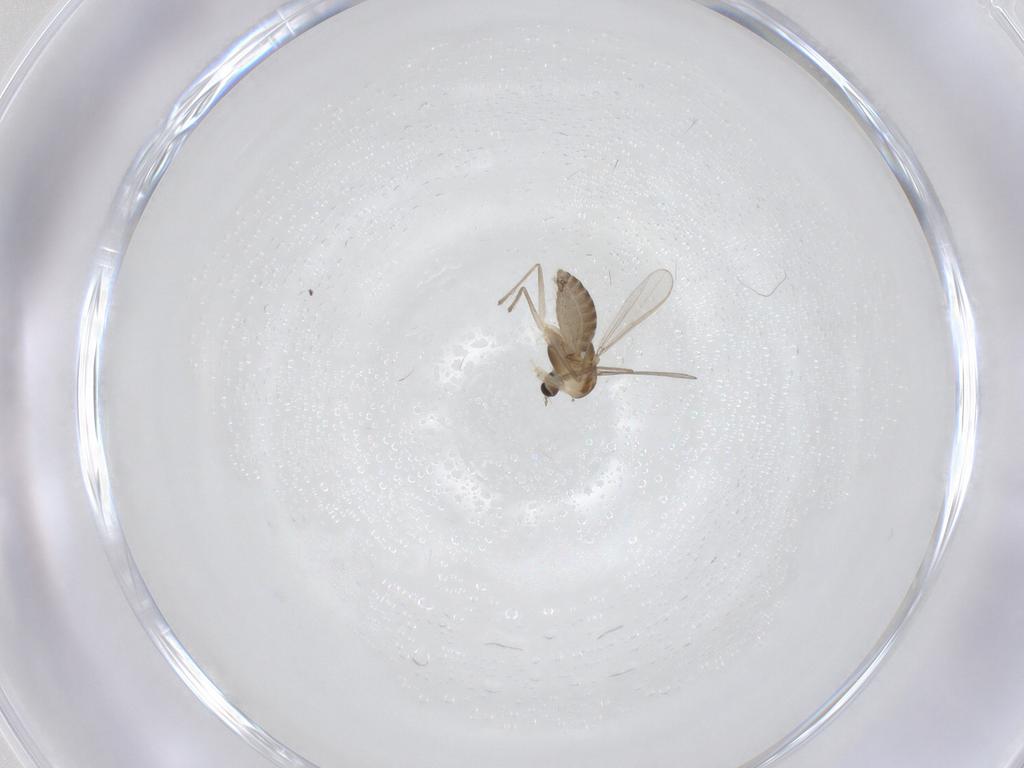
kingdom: Animalia
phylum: Arthropoda
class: Insecta
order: Diptera
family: Chironomidae
